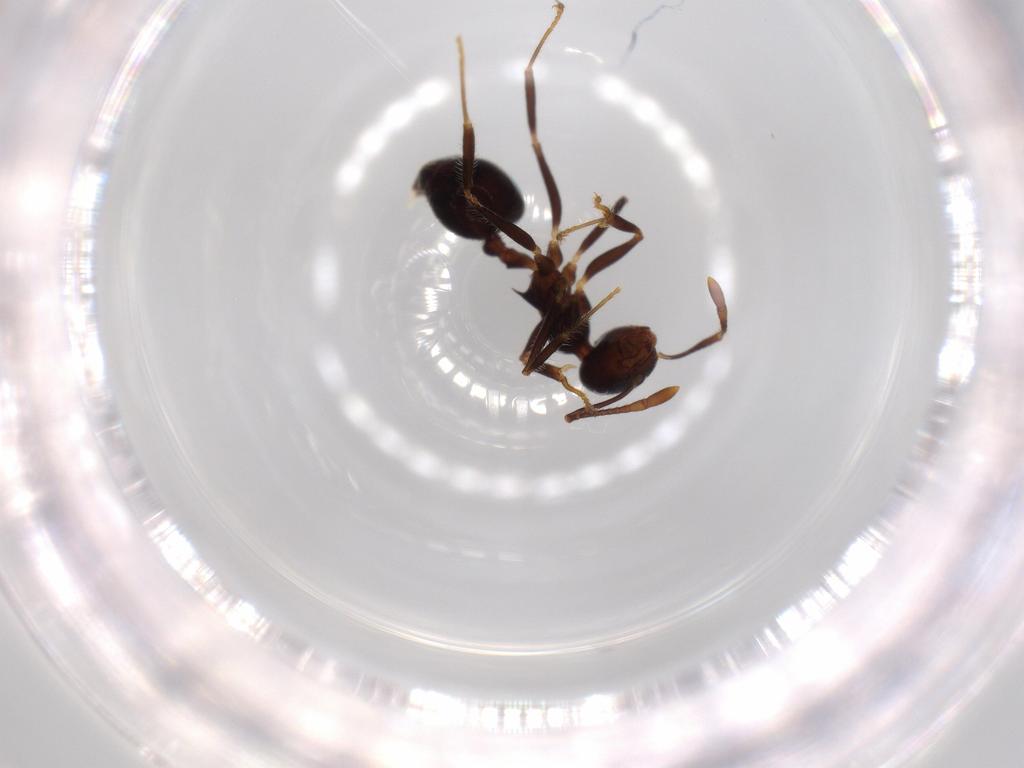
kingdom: Animalia
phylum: Arthropoda
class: Insecta
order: Hymenoptera
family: Formicidae
